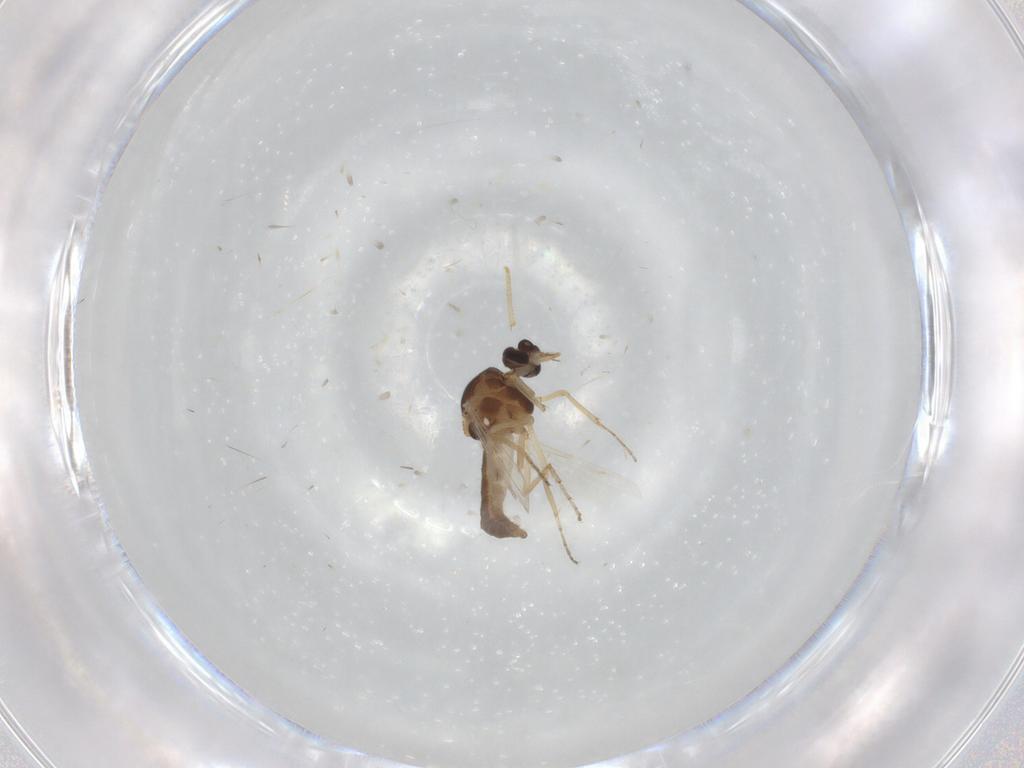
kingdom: Animalia
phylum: Arthropoda
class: Insecta
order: Diptera
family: Ceratopogonidae
